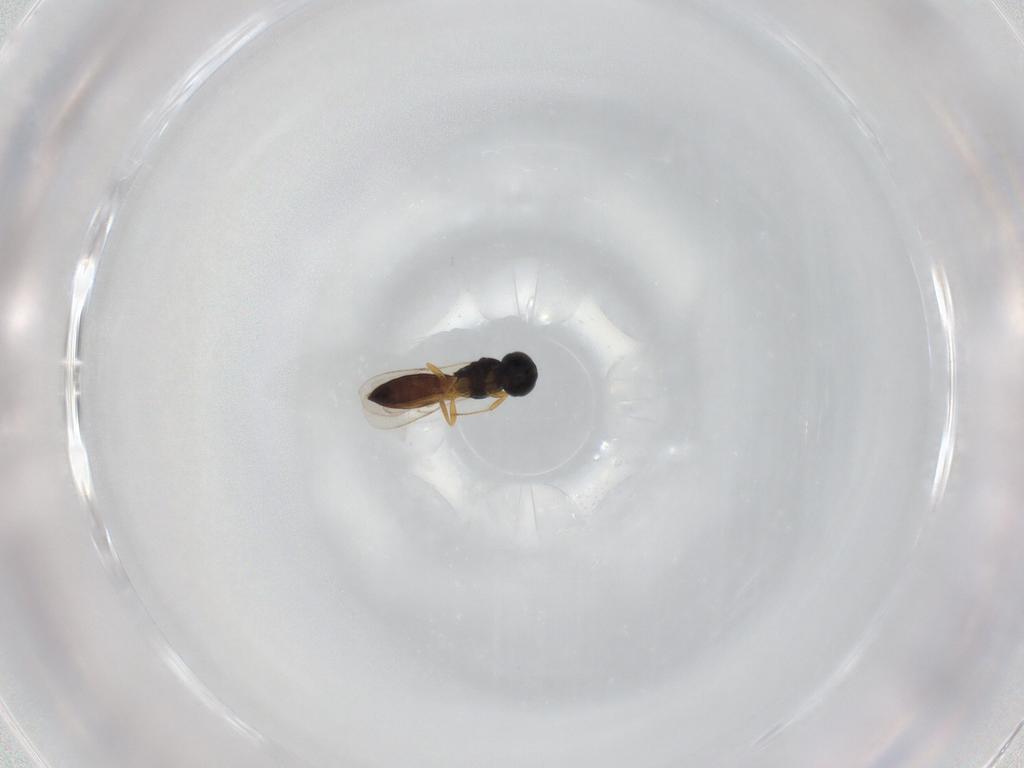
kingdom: Animalia
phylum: Arthropoda
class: Insecta
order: Hymenoptera
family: Scelionidae
